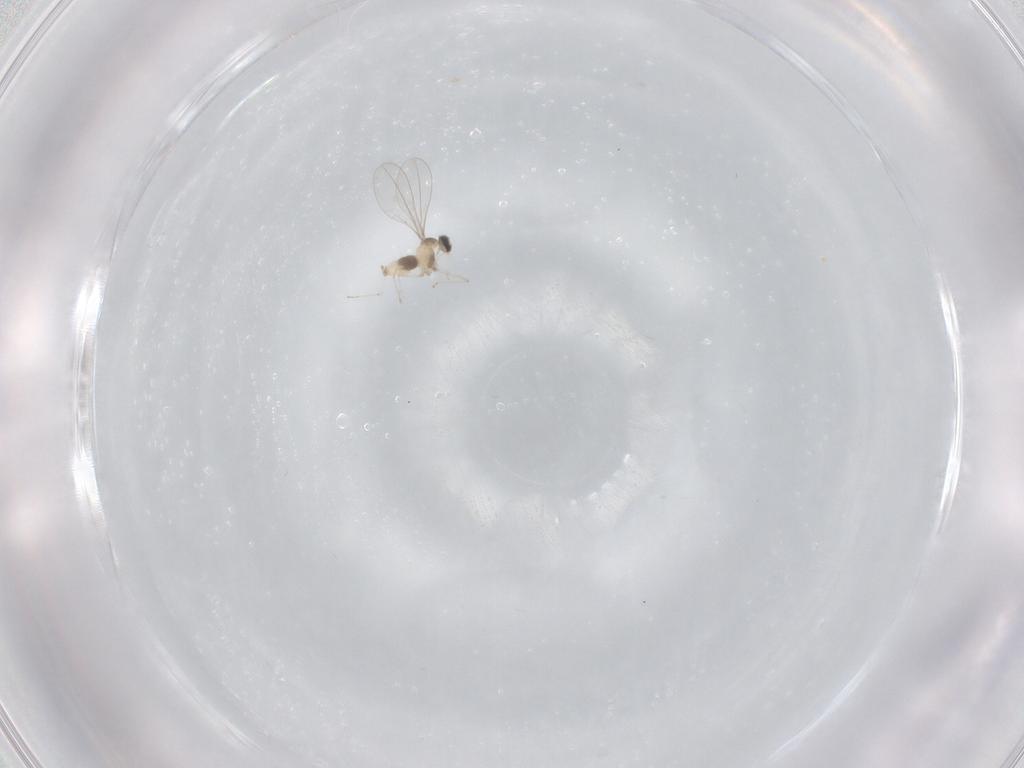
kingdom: Animalia
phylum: Arthropoda
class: Insecta
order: Diptera
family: Cecidomyiidae
